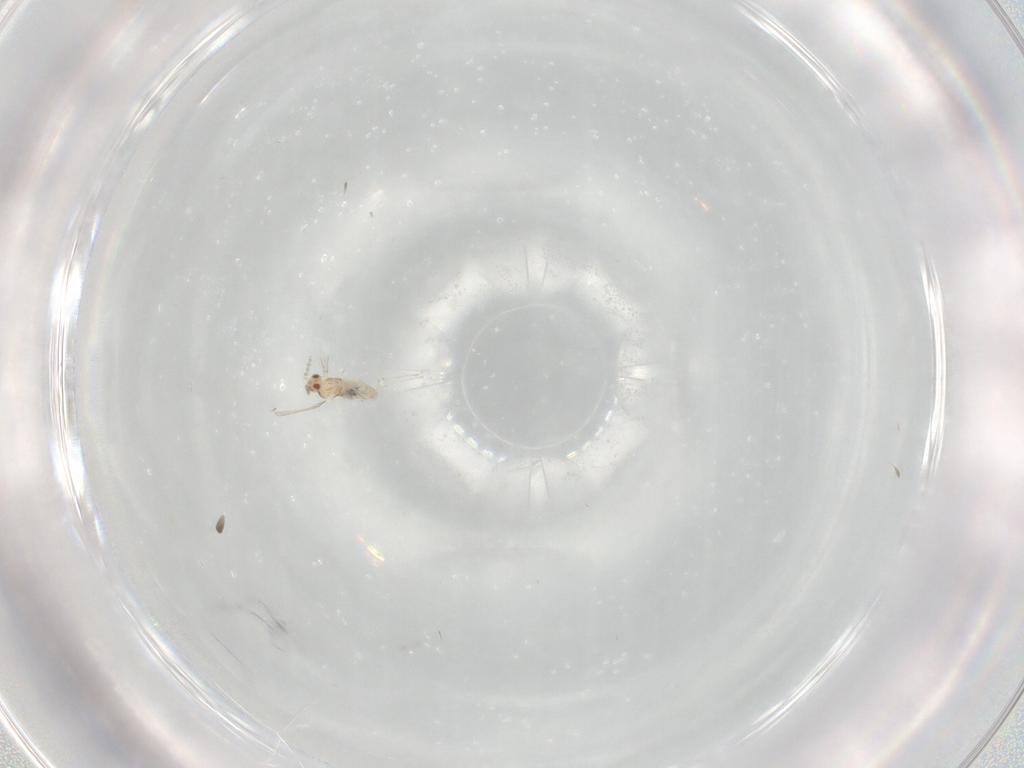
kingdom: Animalia
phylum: Arthropoda
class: Insecta
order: Diptera
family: Cecidomyiidae
